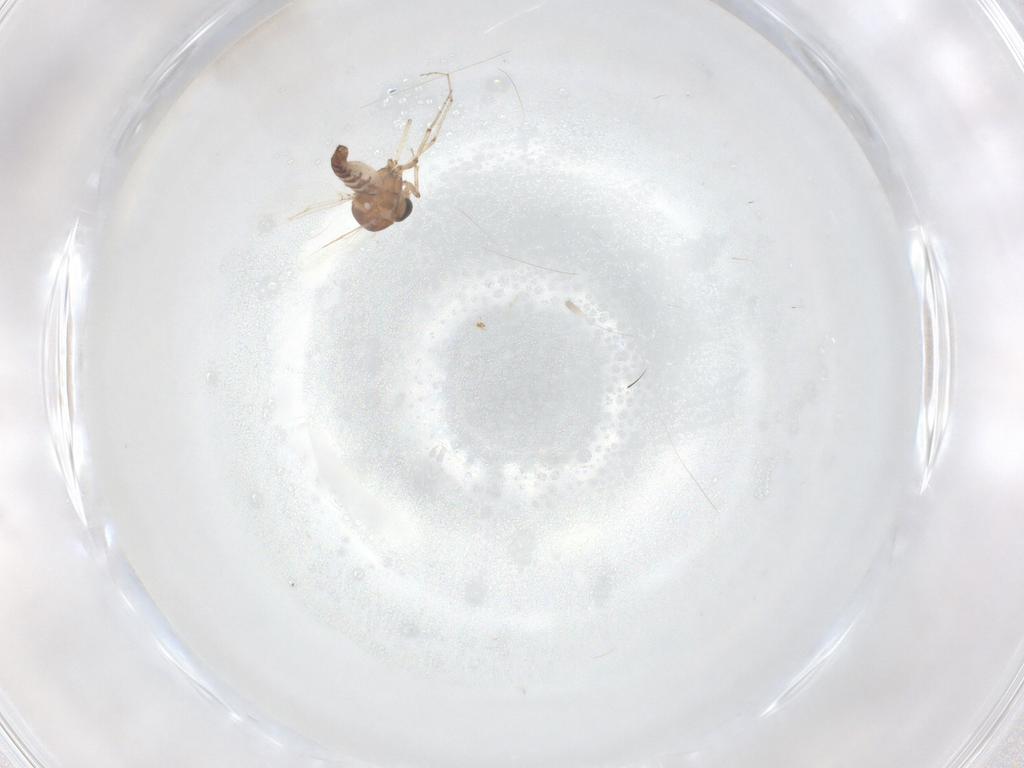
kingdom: Animalia
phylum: Arthropoda
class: Insecta
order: Diptera
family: Ceratopogonidae
